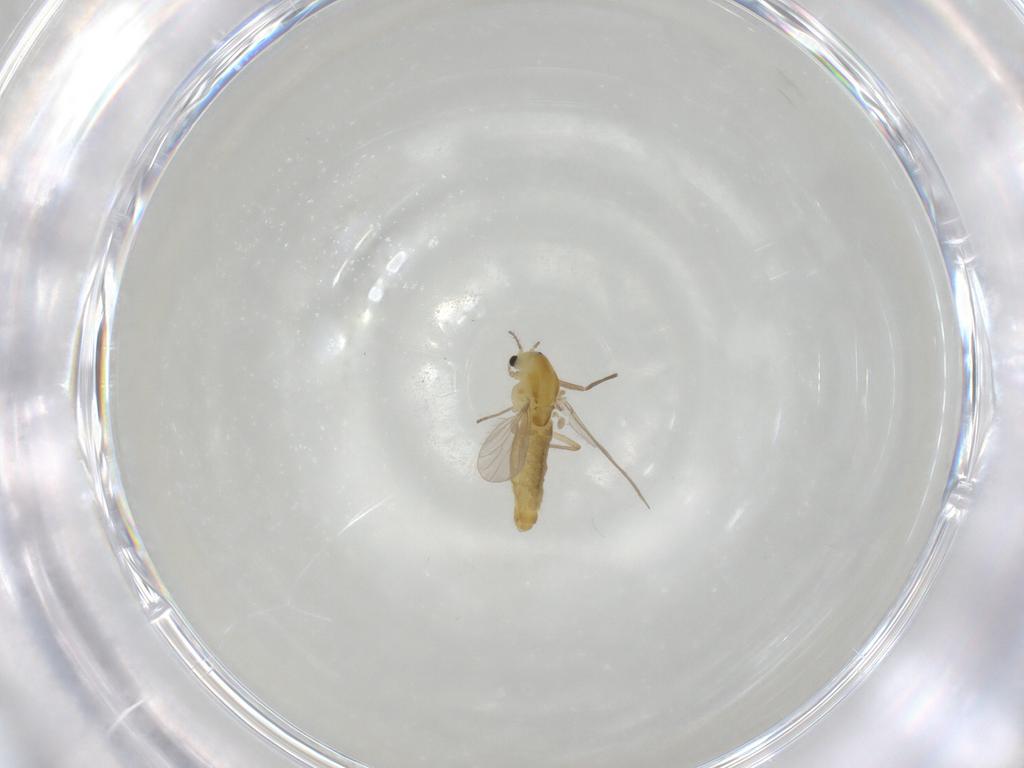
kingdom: Animalia
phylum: Arthropoda
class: Insecta
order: Diptera
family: Chironomidae
